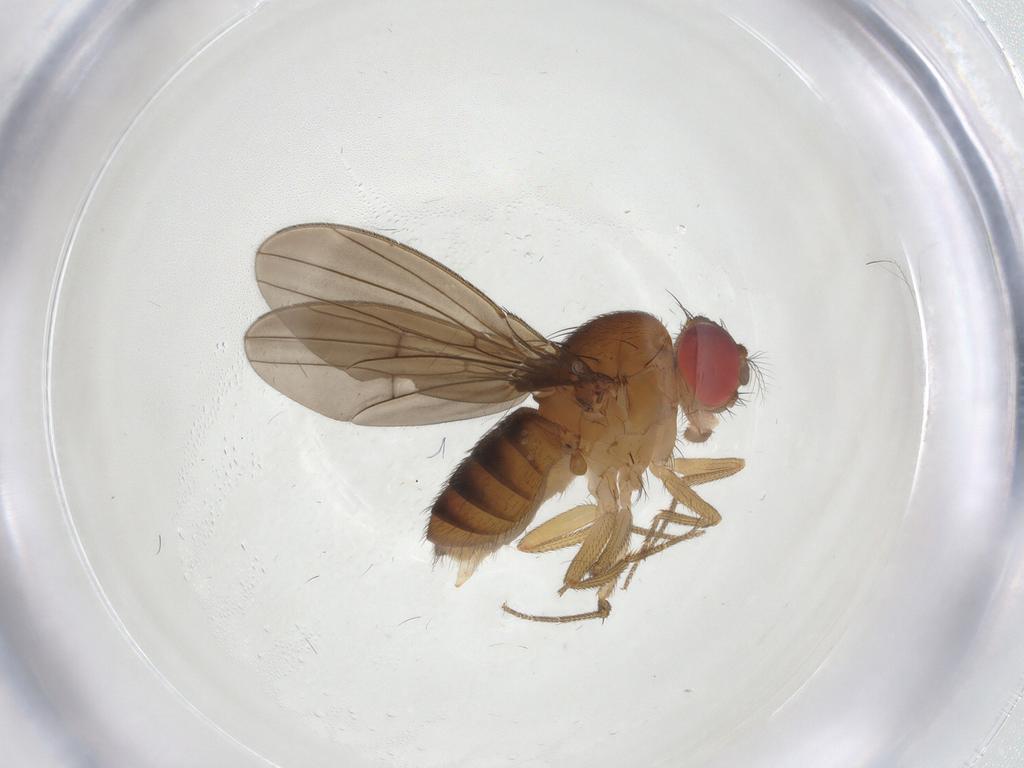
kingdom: Animalia
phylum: Arthropoda
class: Insecta
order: Diptera
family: Drosophilidae
